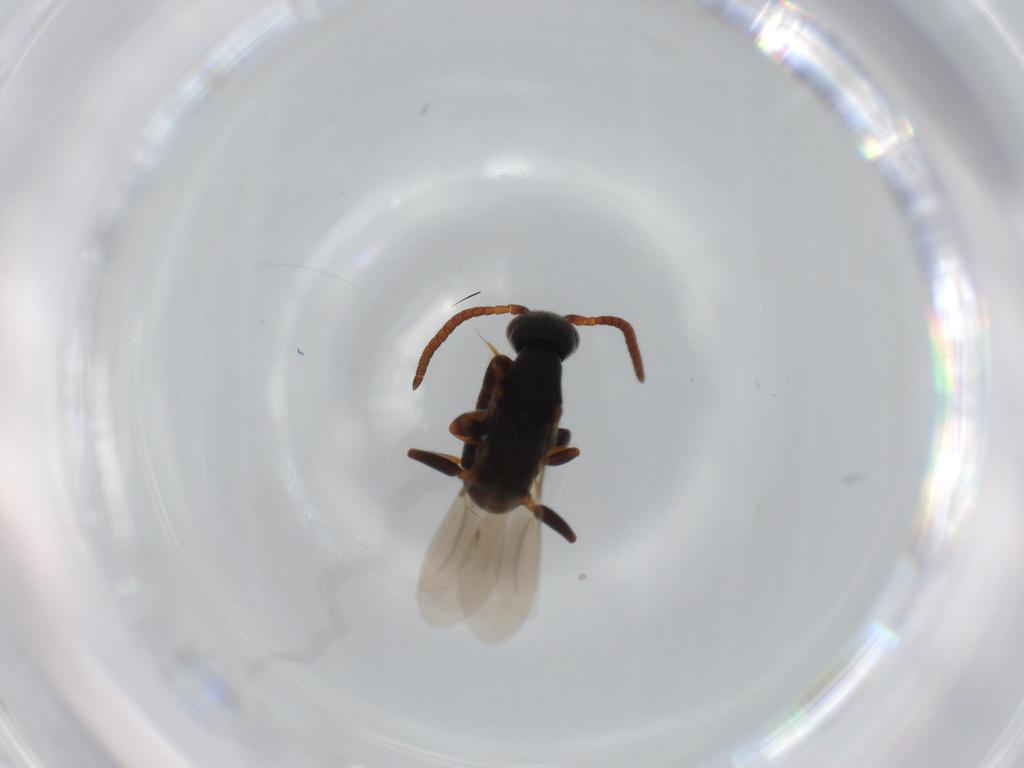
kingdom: Animalia
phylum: Arthropoda
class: Insecta
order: Hymenoptera
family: Bethylidae
